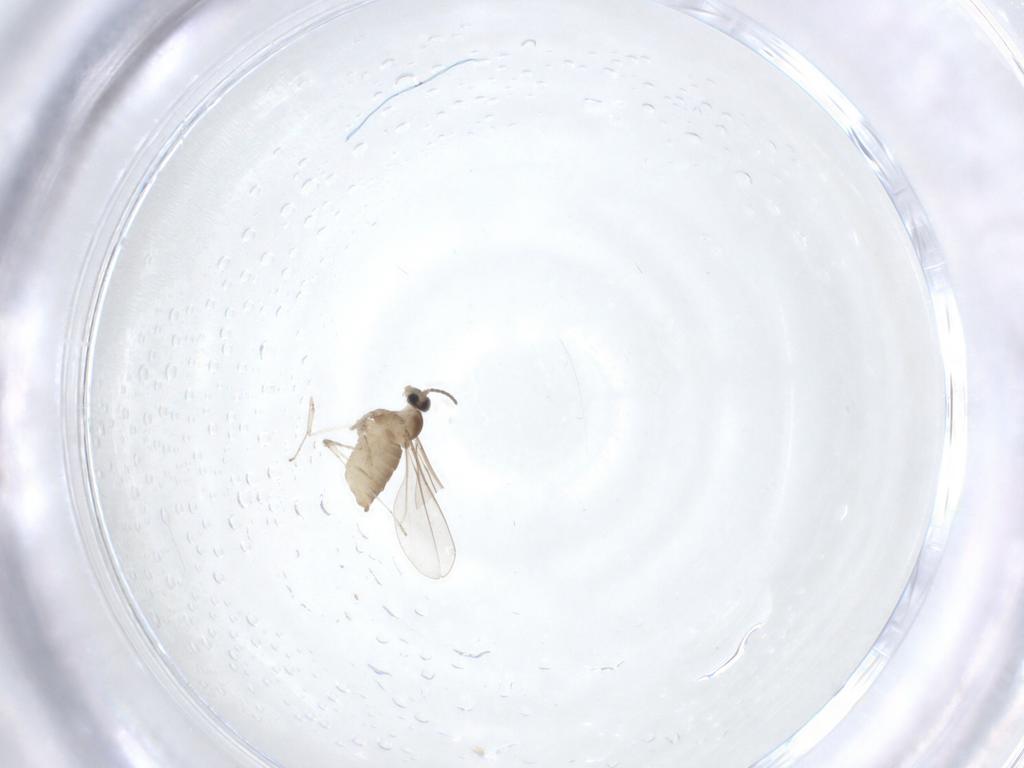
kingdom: Animalia
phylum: Arthropoda
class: Insecta
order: Diptera
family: Cecidomyiidae
